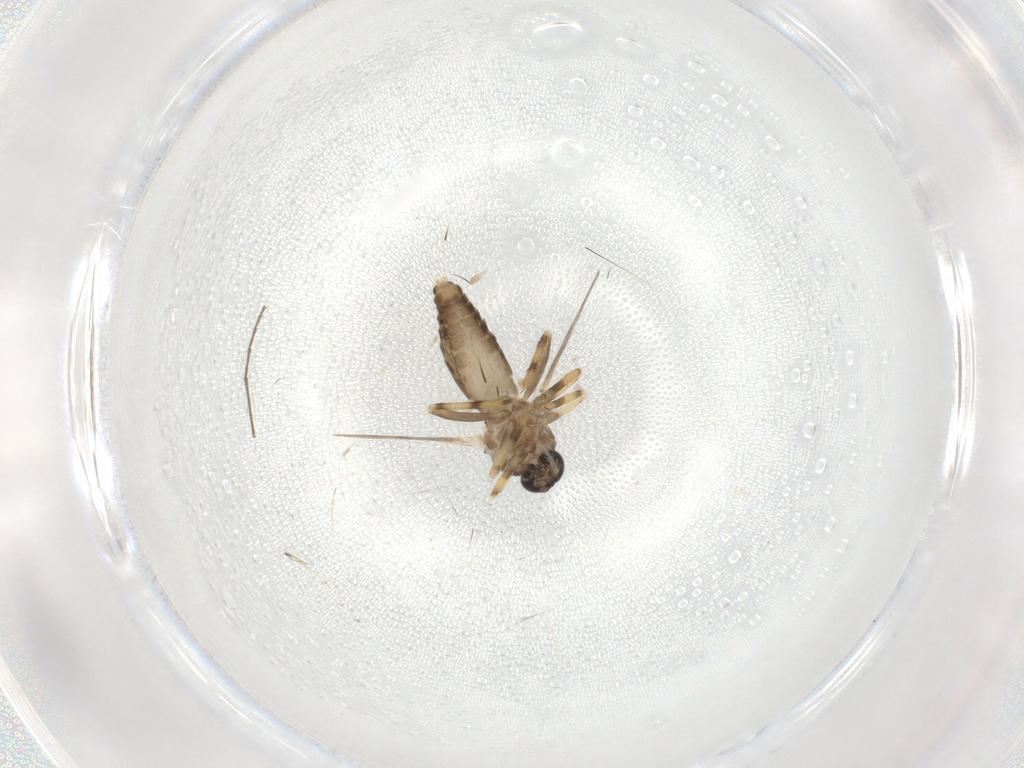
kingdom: Animalia
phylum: Arthropoda
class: Insecta
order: Diptera
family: Ceratopogonidae
